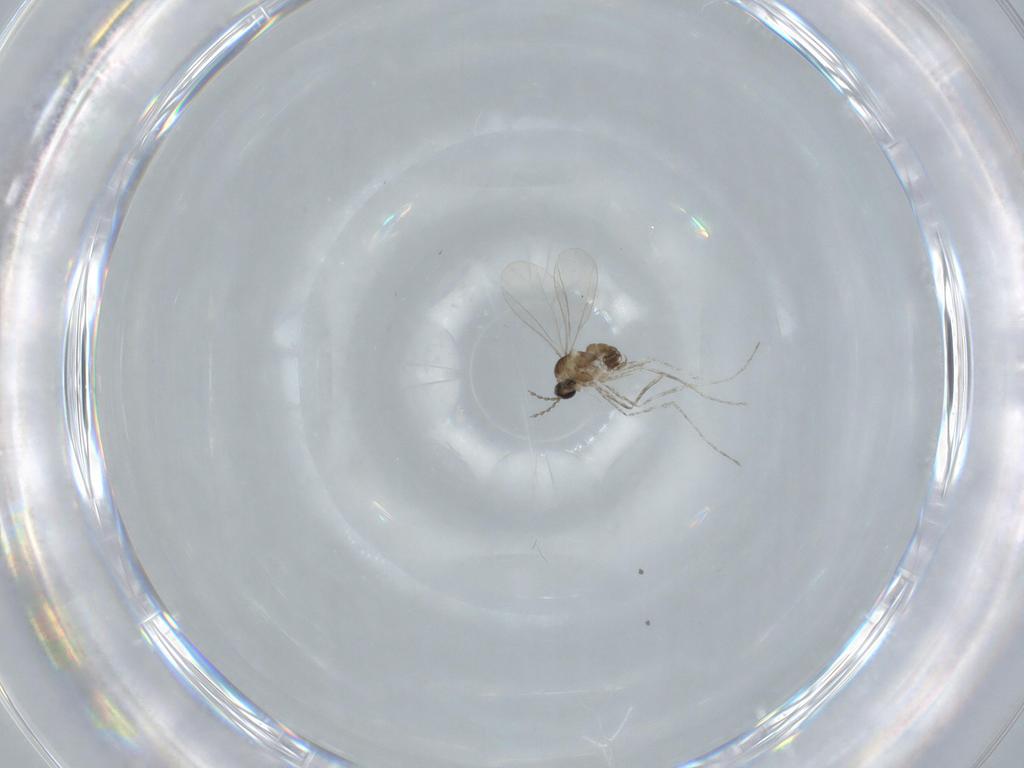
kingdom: Animalia
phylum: Arthropoda
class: Insecta
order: Diptera
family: Cecidomyiidae
